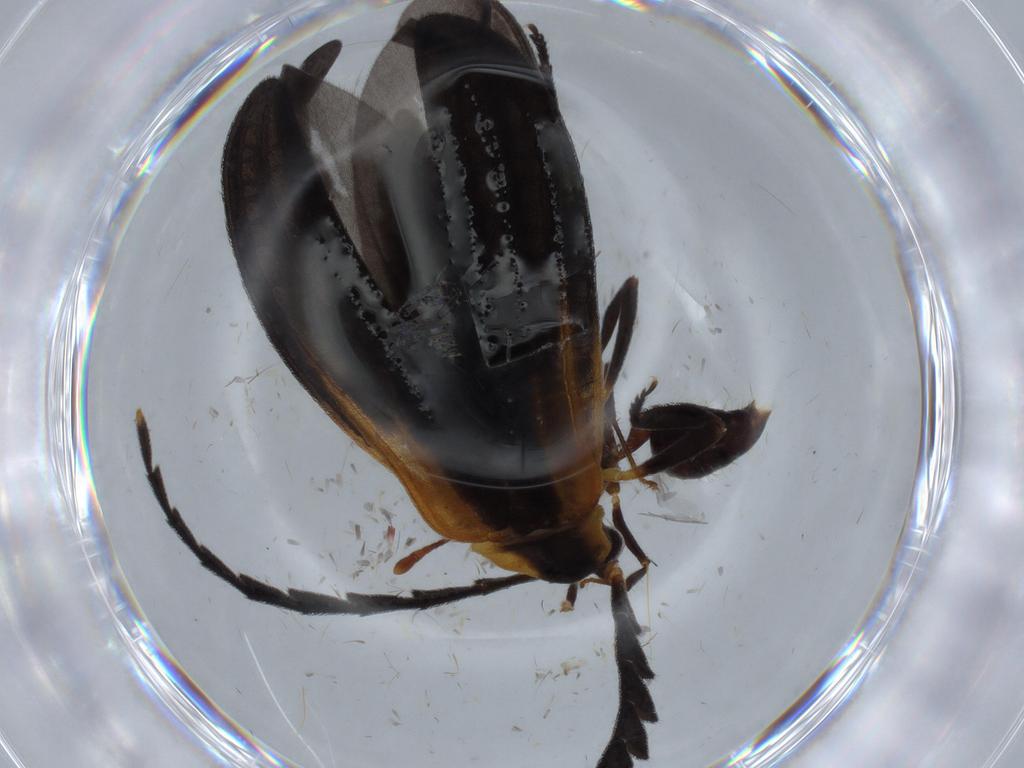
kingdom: Animalia
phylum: Arthropoda
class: Insecta
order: Coleoptera
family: Lycidae
